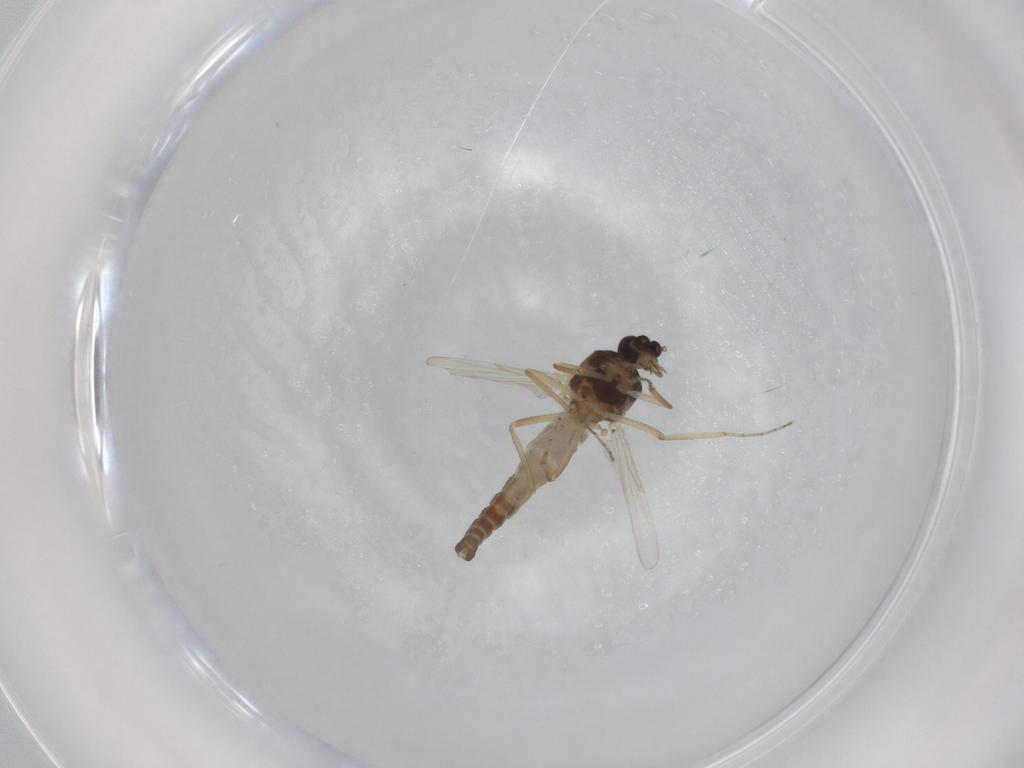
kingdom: Animalia
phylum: Arthropoda
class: Insecta
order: Diptera
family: Ceratopogonidae
